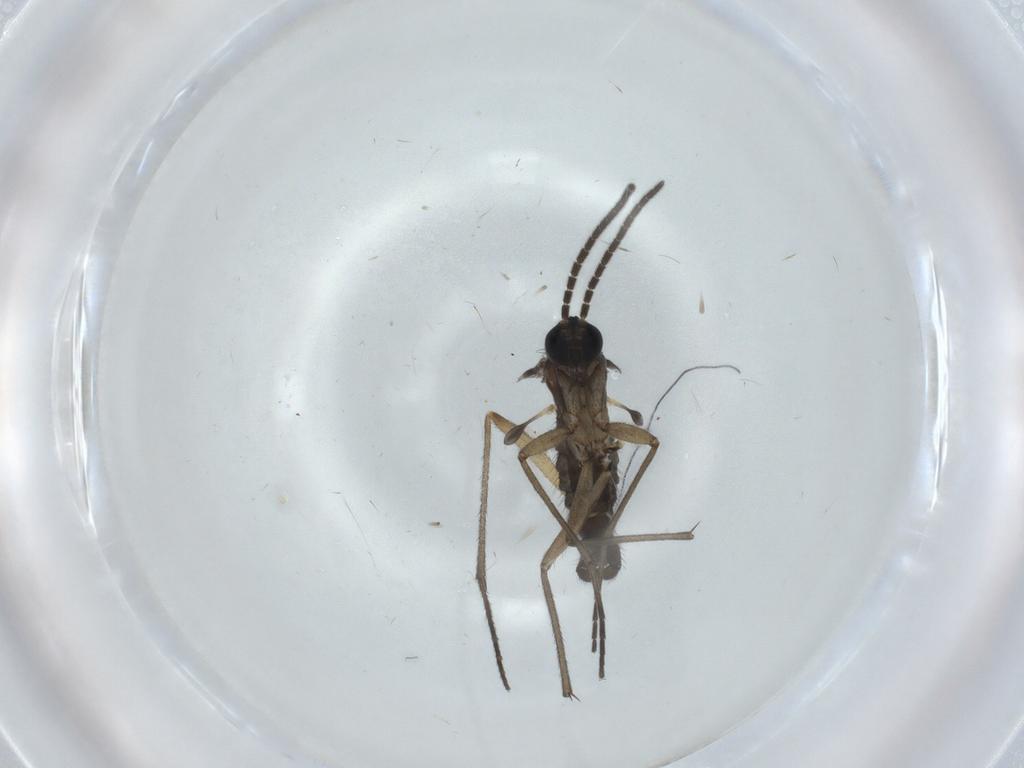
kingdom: Animalia
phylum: Arthropoda
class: Insecta
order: Diptera
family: Sciaridae
